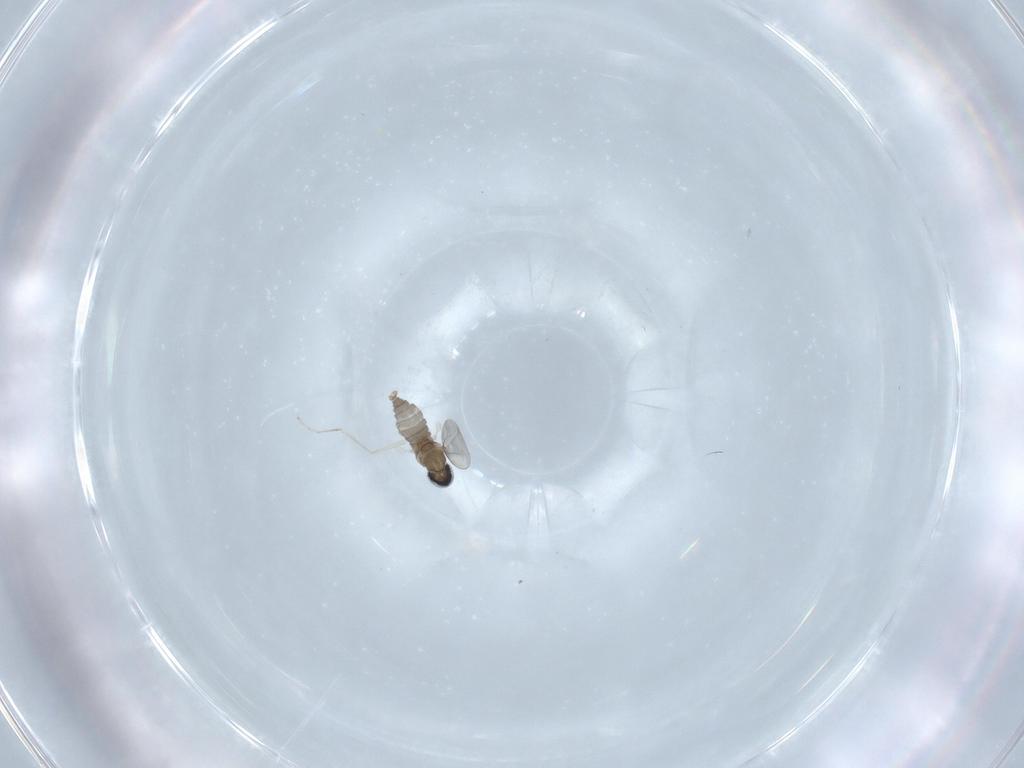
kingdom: Animalia
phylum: Arthropoda
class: Insecta
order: Diptera
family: Cecidomyiidae
